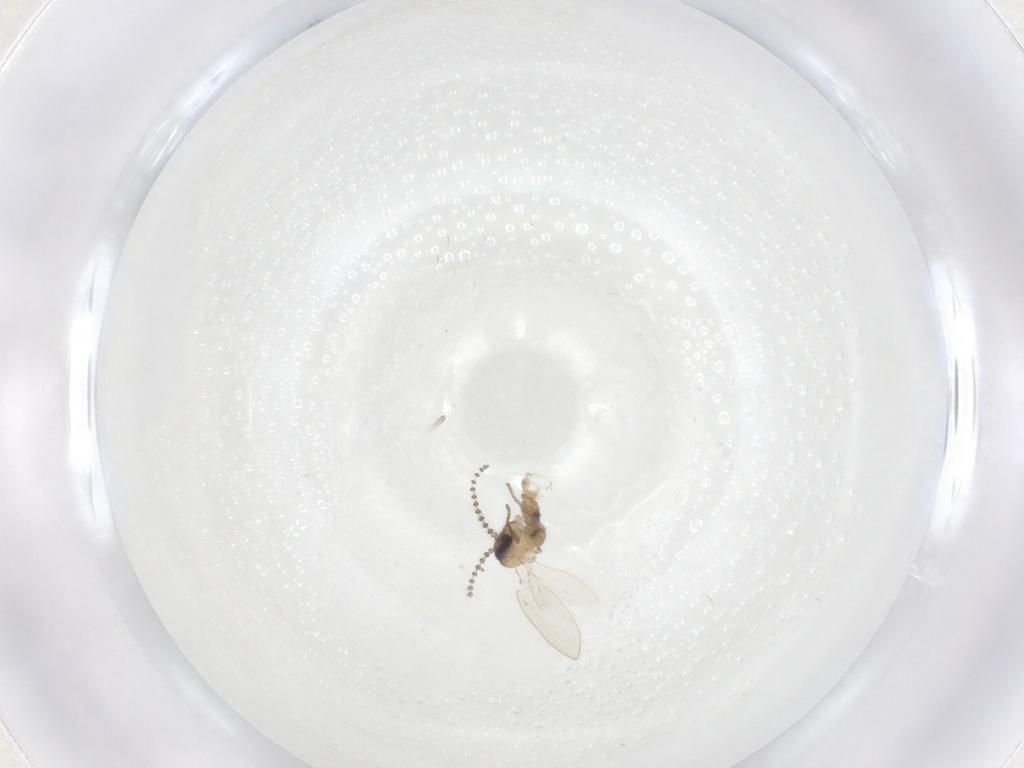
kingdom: Animalia
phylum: Arthropoda
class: Insecta
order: Diptera
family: Psychodidae
